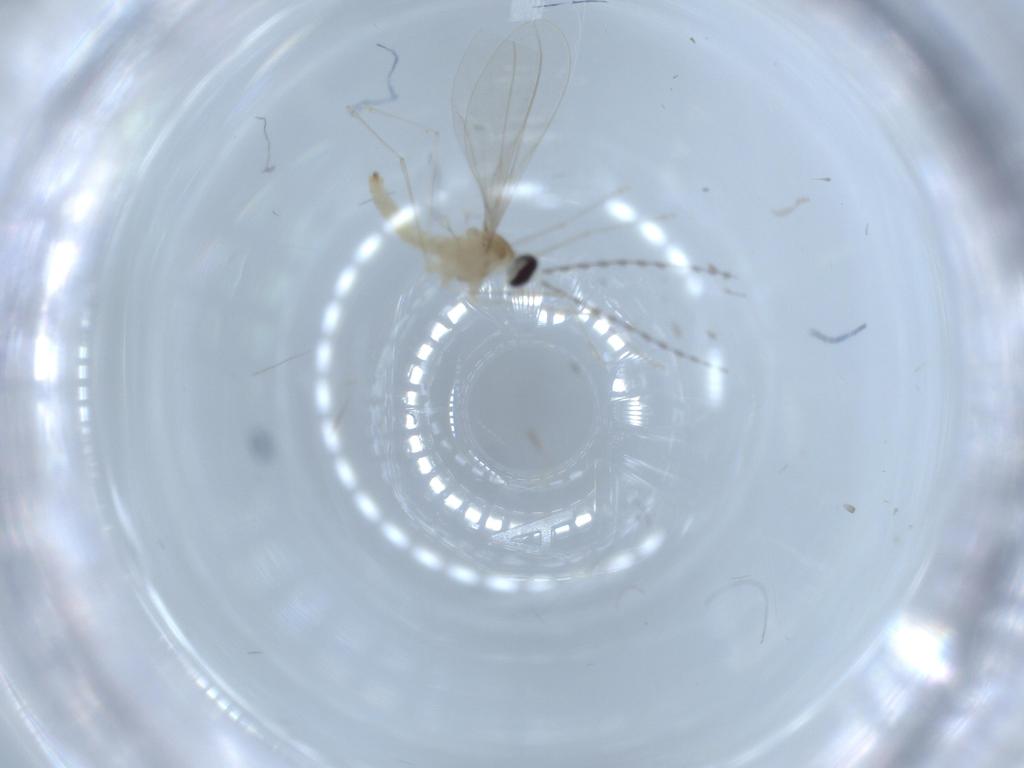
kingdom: Animalia
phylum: Arthropoda
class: Insecta
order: Diptera
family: Cecidomyiidae
